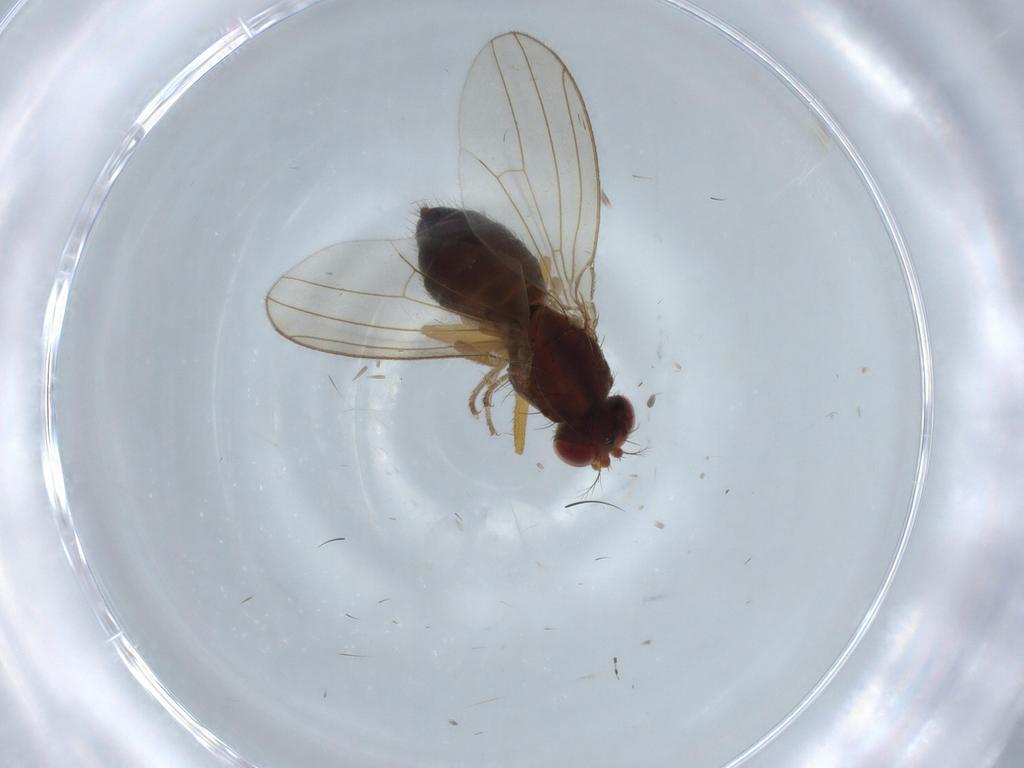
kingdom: Animalia
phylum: Arthropoda
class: Insecta
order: Diptera
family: Drosophilidae
